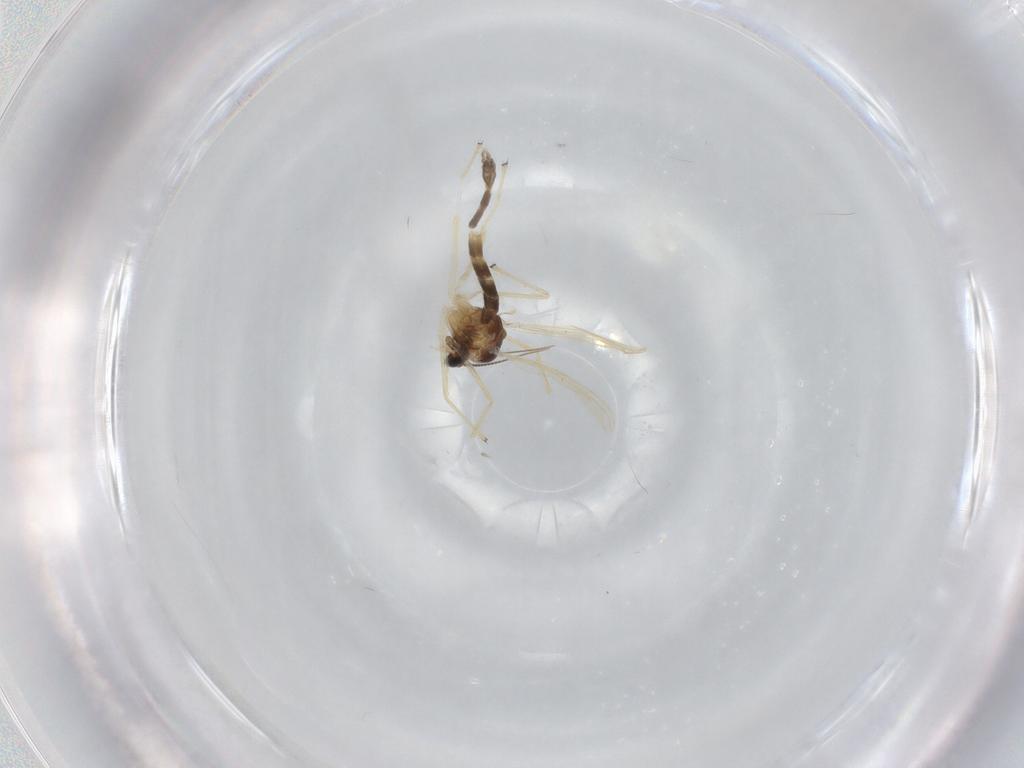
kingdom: Animalia
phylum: Arthropoda
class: Insecta
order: Diptera
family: Chironomidae
